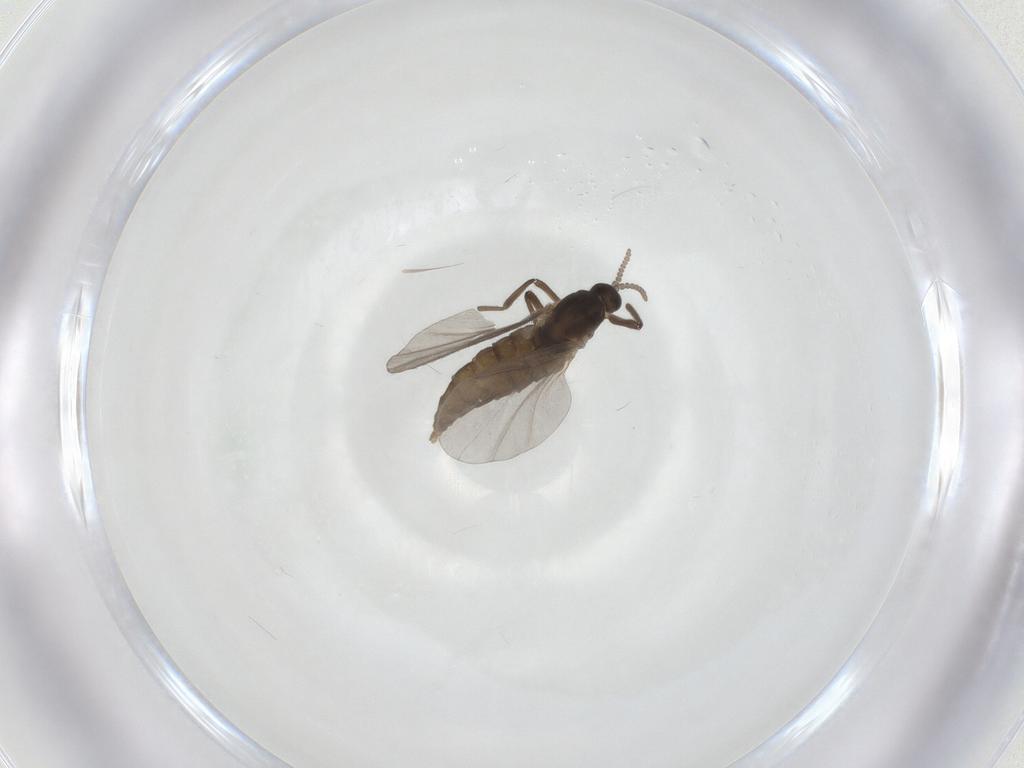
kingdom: Animalia
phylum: Arthropoda
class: Insecta
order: Diptera
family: Cecidomyiidae
